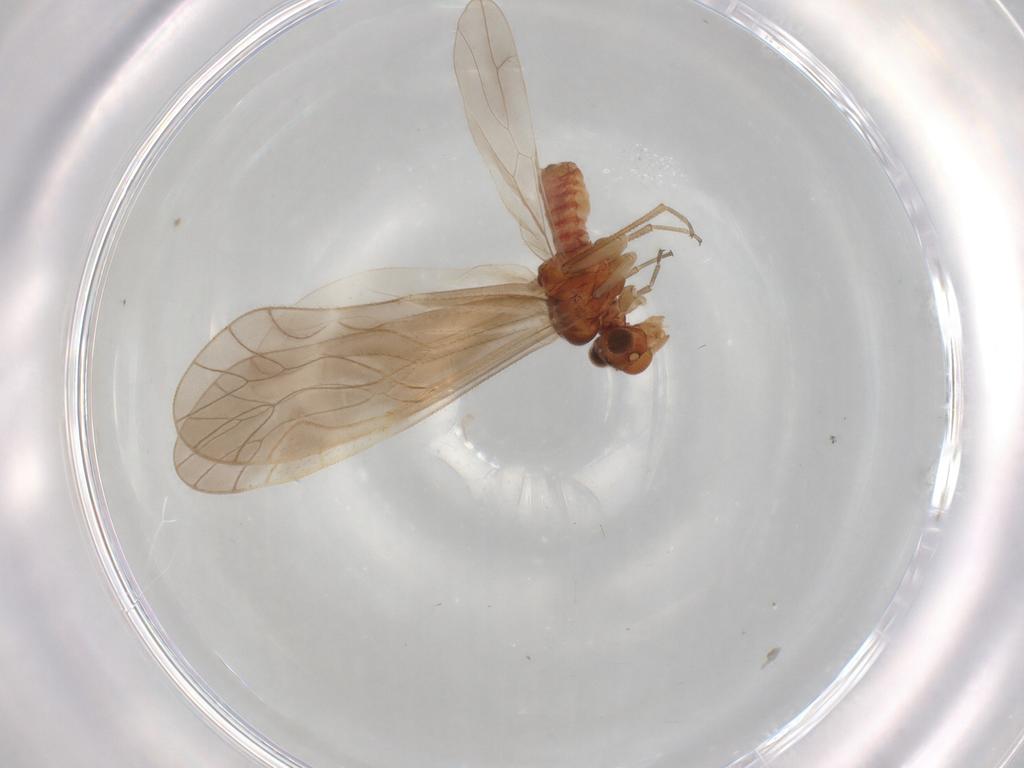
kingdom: Animalia
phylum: Arthropoda
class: Insecta
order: Psocodea
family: Caeciliusidae
